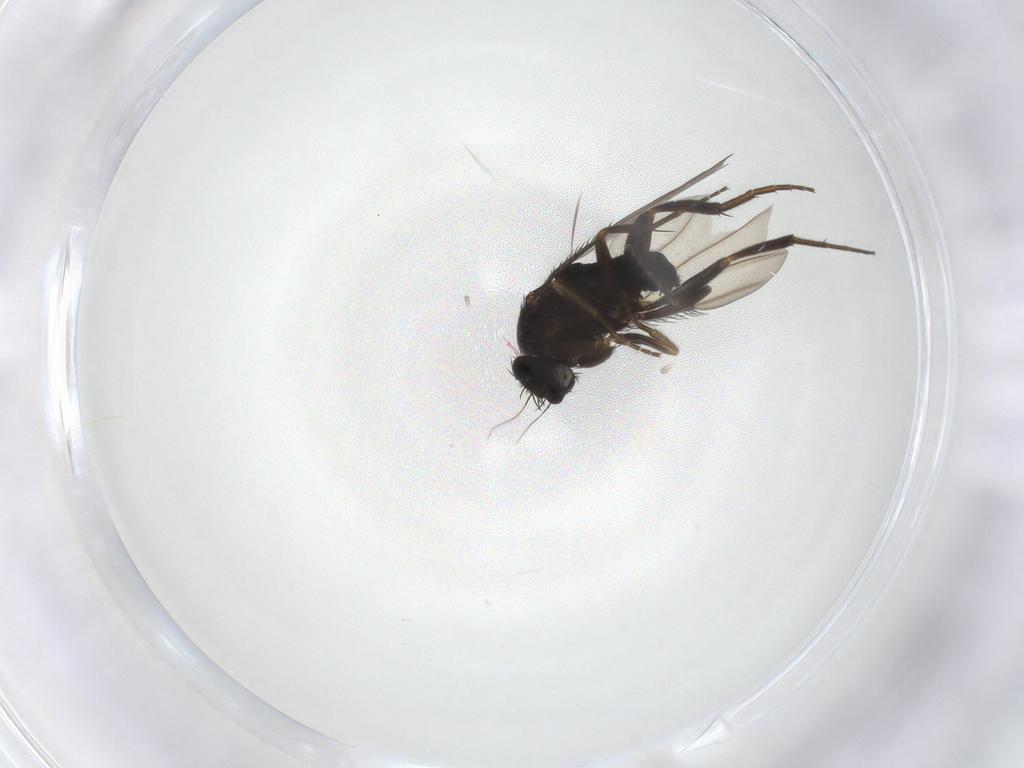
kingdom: Animalia
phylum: Arthropoda
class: Insecta
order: Diptera
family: Phoridae
